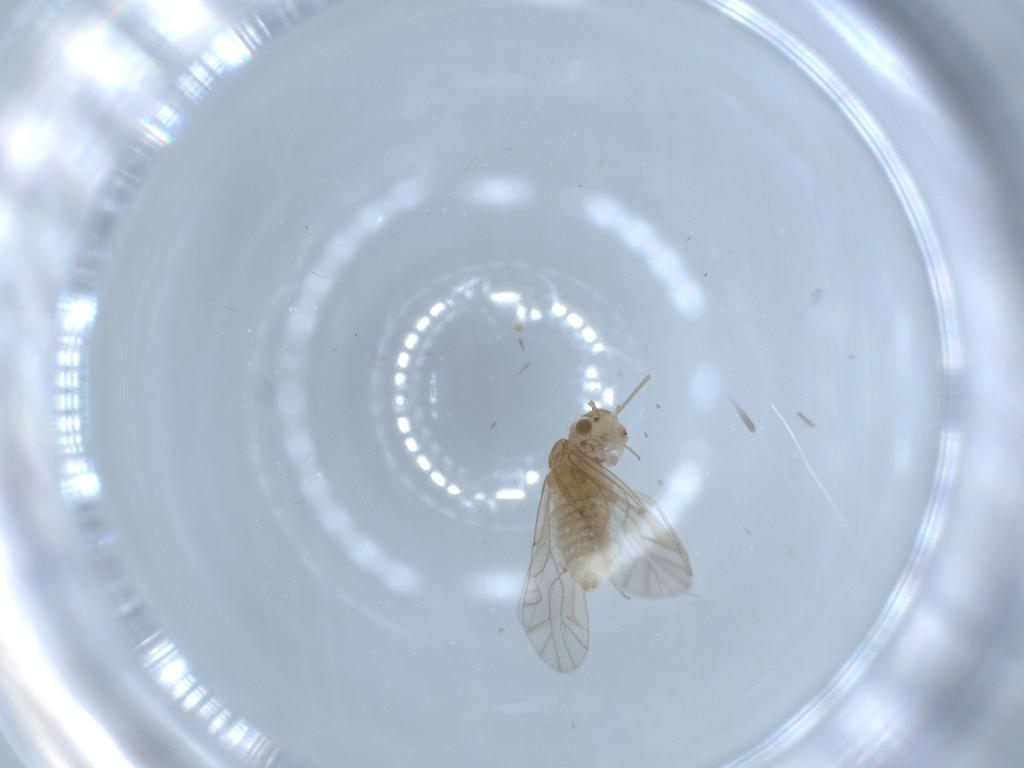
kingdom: Animalia
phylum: Arthropoda
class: Insecta
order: Psocodea
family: Lachesillidae
